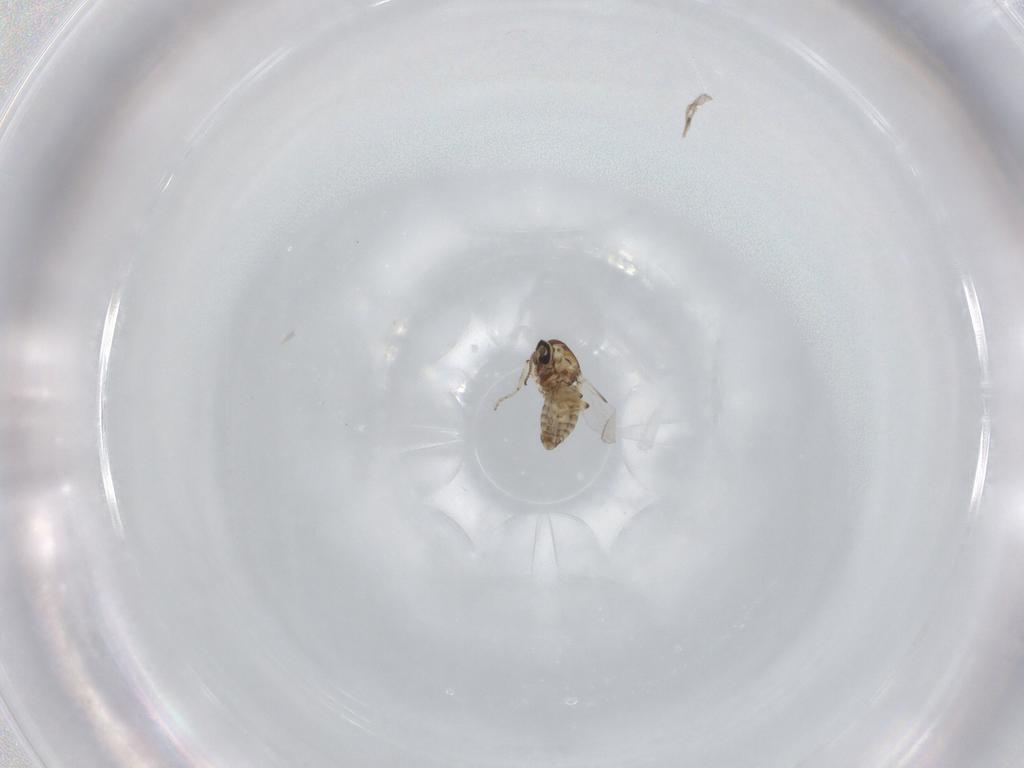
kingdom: Animalia
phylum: Arthropoda
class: Insecta
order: Diptera
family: Ceratopogonidae
